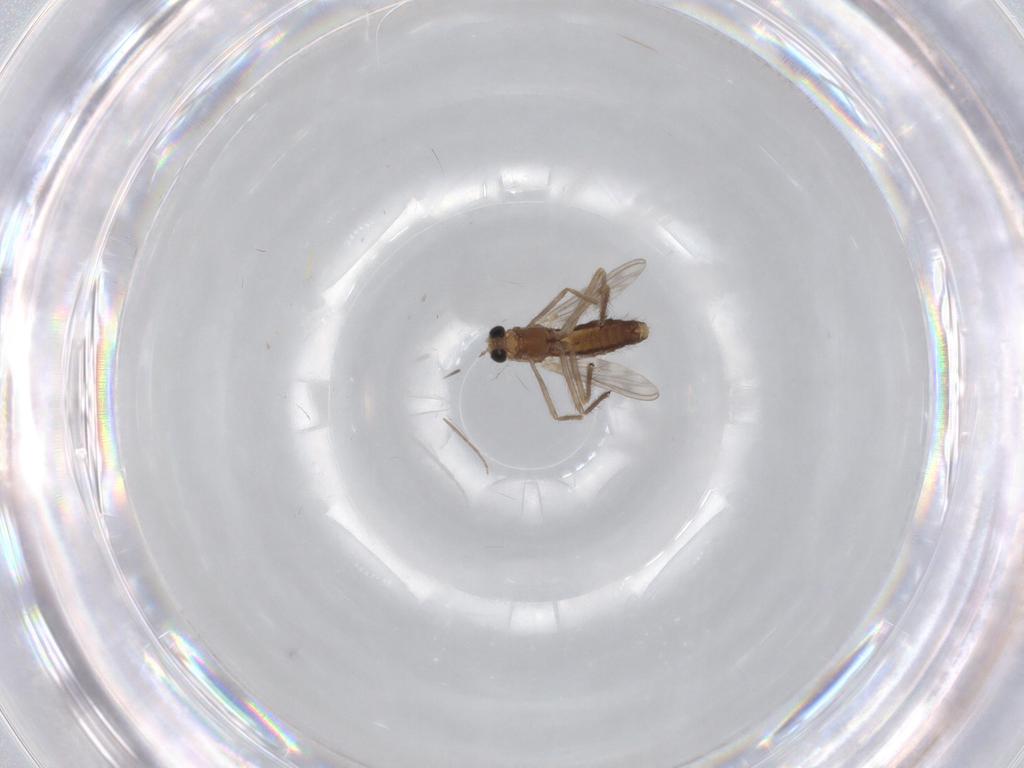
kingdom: Animalia
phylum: Arthropoda
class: Insecta
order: Diptera
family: Chironomidae
